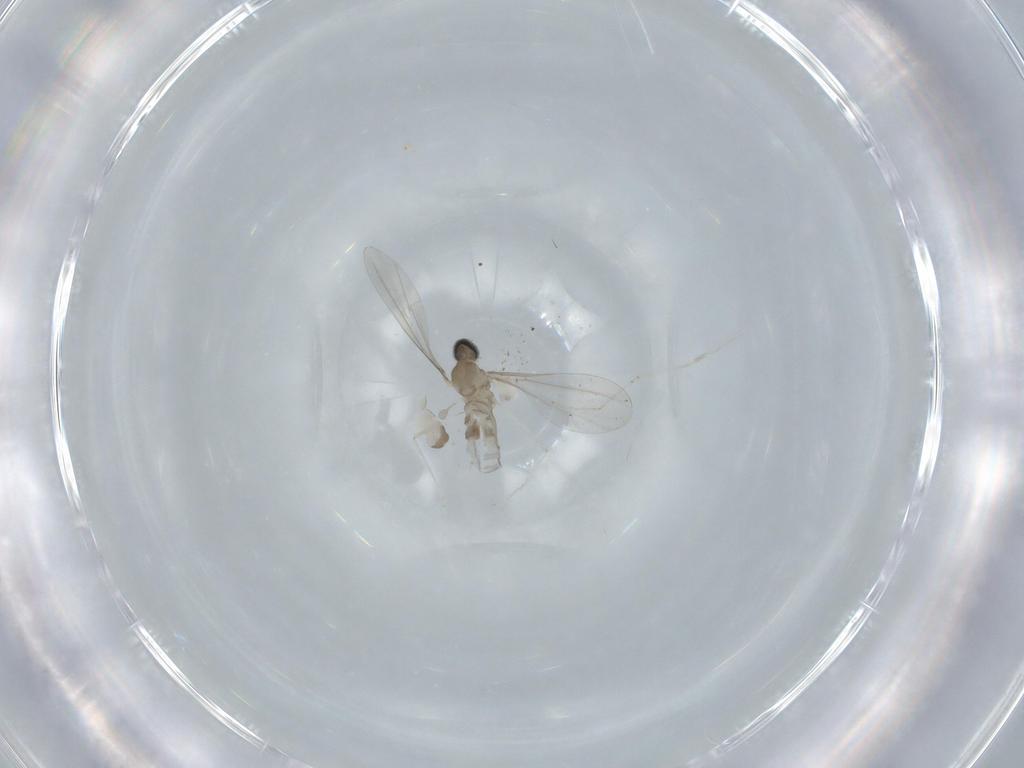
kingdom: Animalia
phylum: Arthropoda
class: Insecta
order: Diptera
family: Cecidomyiidae
